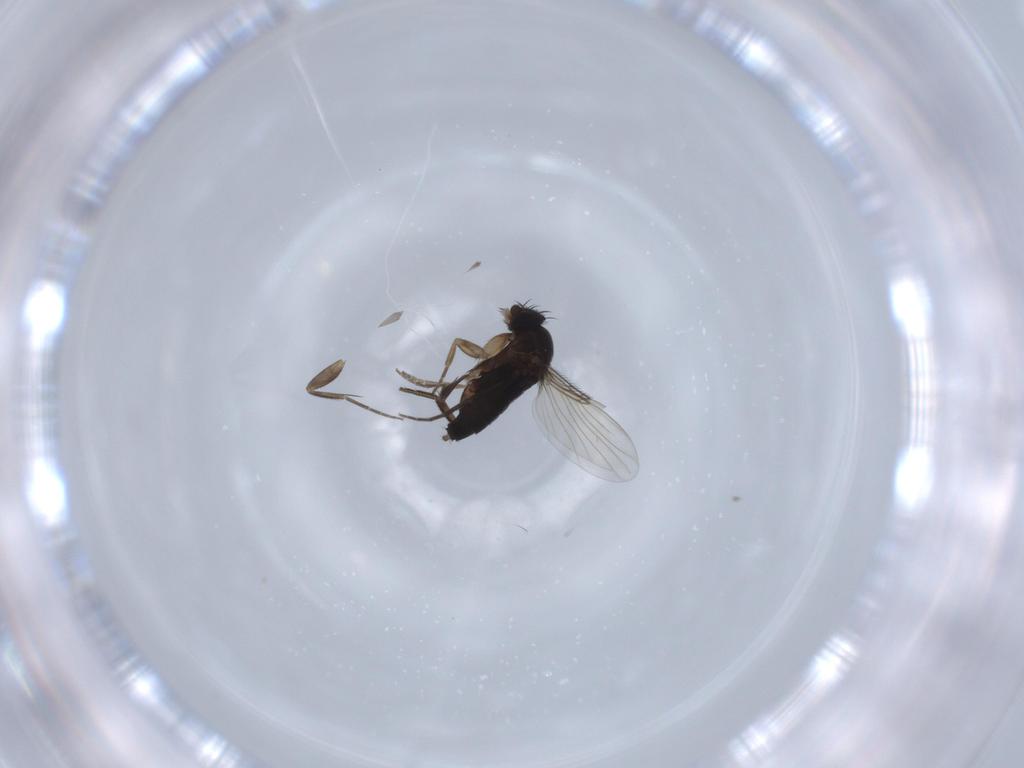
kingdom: Animalia
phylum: Arthropoda
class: Insecta
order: Diptera
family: Phoridae
